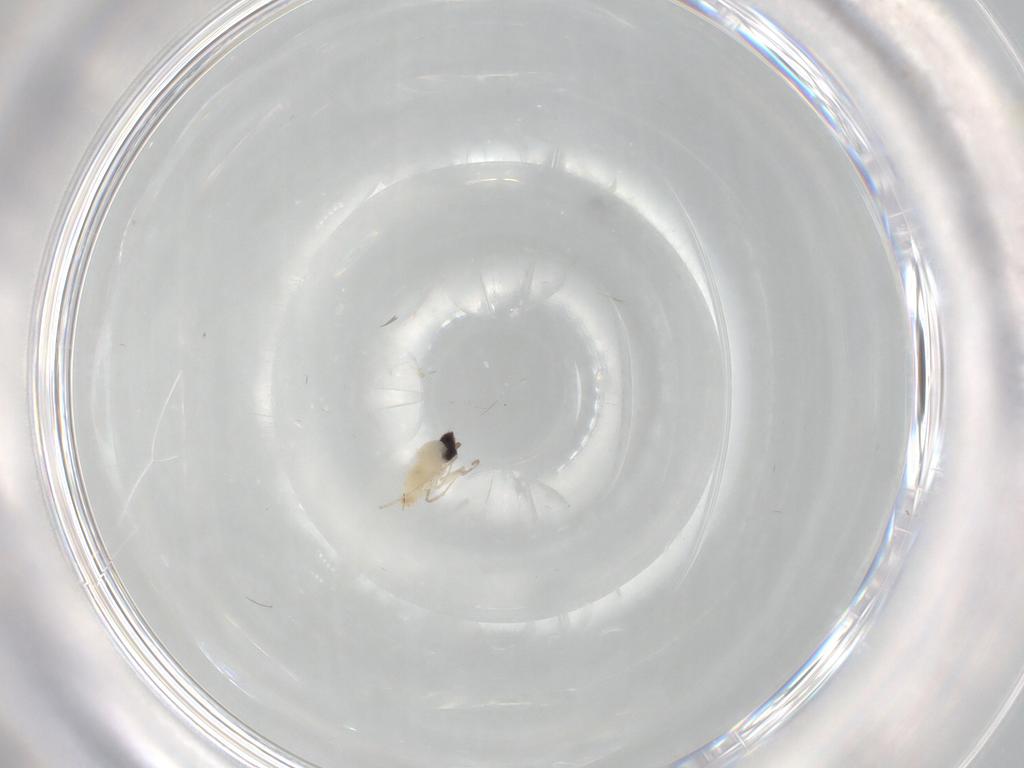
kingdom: Animalia
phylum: Arthropoda
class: Insecta
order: Diptera
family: Cecidomyiidae
